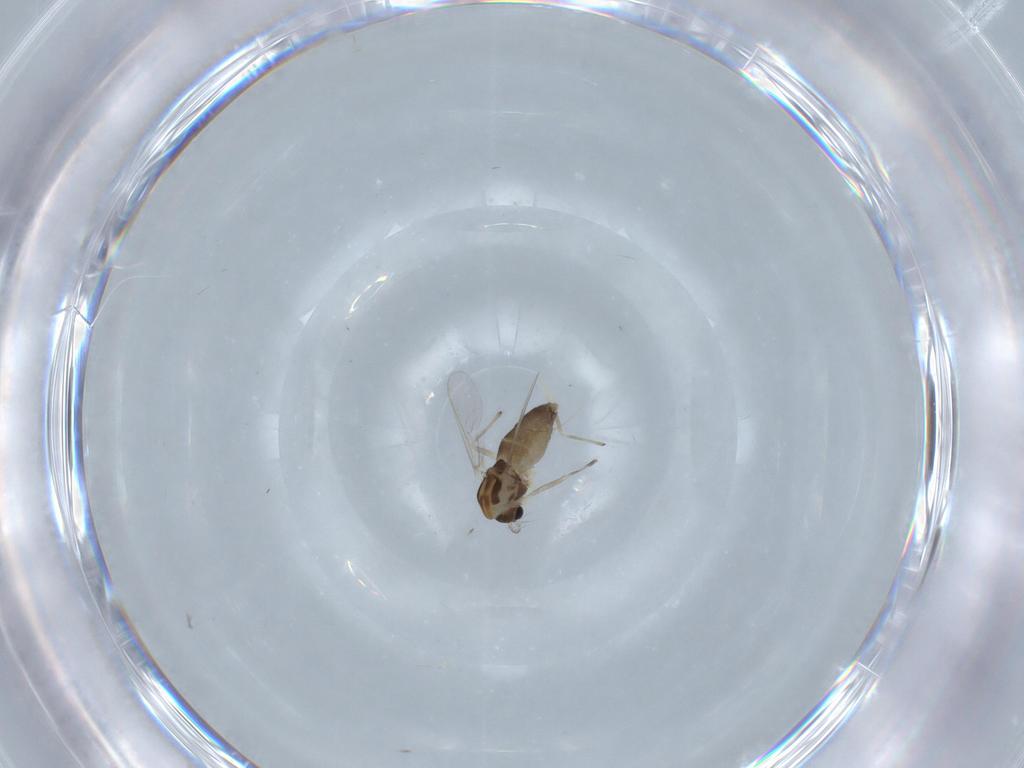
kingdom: Animalia
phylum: Arthropoda
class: Insecta
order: Diptera
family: Chironomidae
